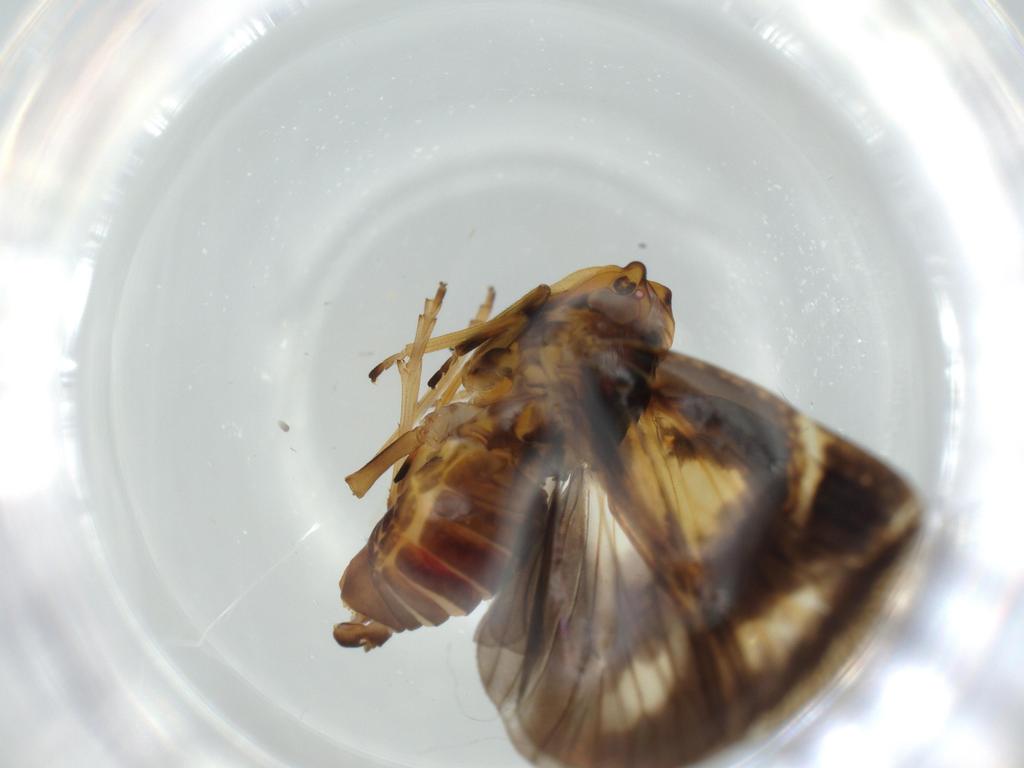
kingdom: Animalia
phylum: Arthropoda
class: Insecta
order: Hemiptera
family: Cixiidae
